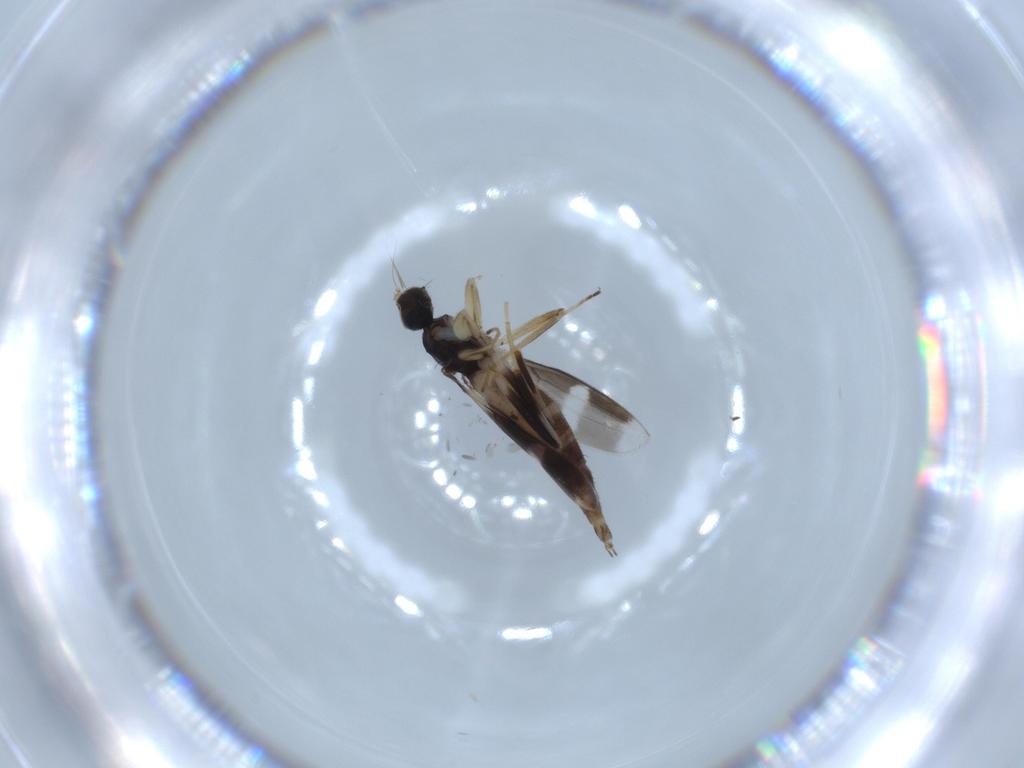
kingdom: Animalia
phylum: Arthropoda
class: Insecta
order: Diptera
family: Hybotidae
